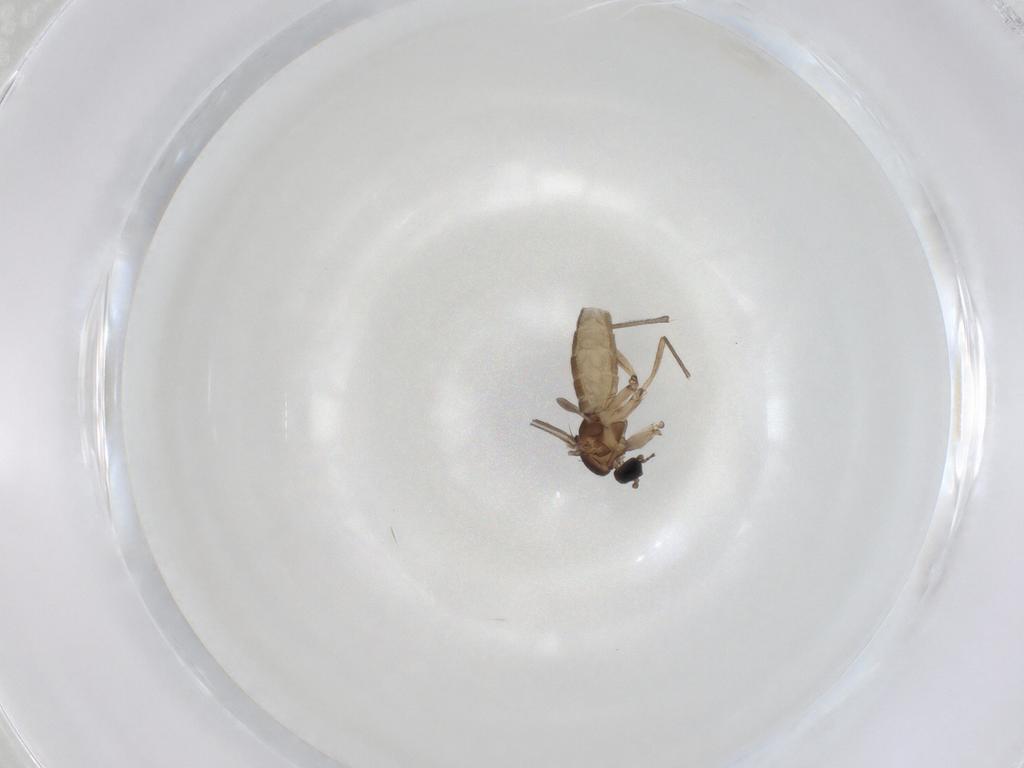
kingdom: Animalia
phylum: Arthropoda
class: Insecta
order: Diptera
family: Sciaridae
